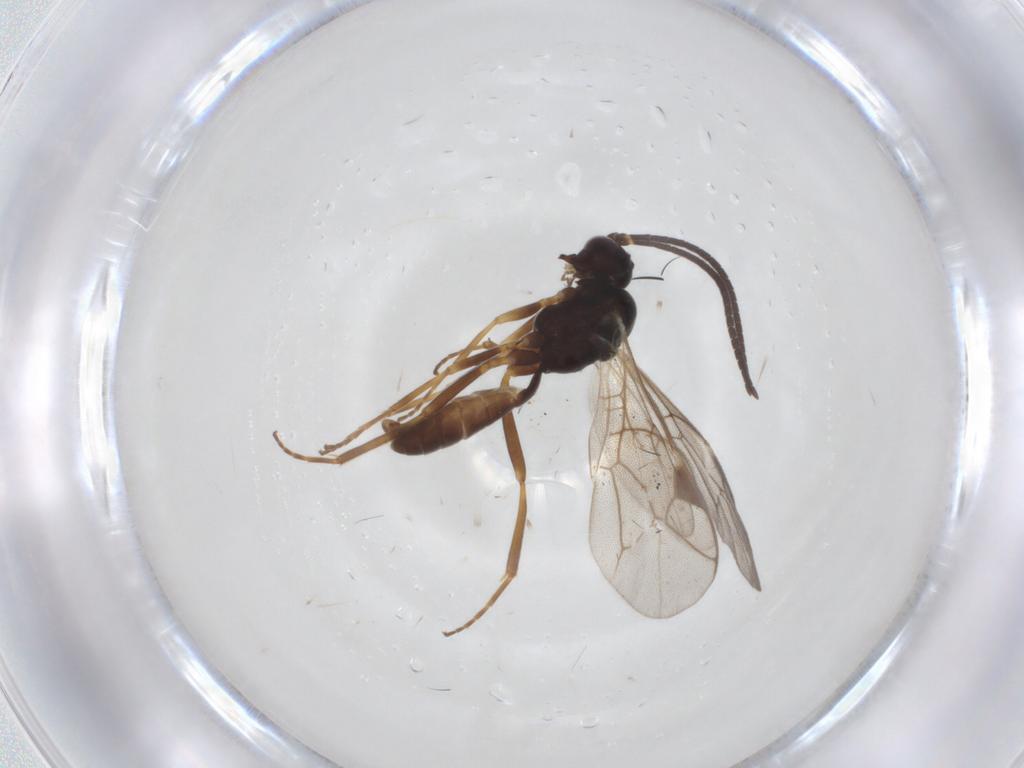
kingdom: Animalia
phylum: Arthropoda
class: Insecta
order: Hymenoptera
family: Ichneumonidae
